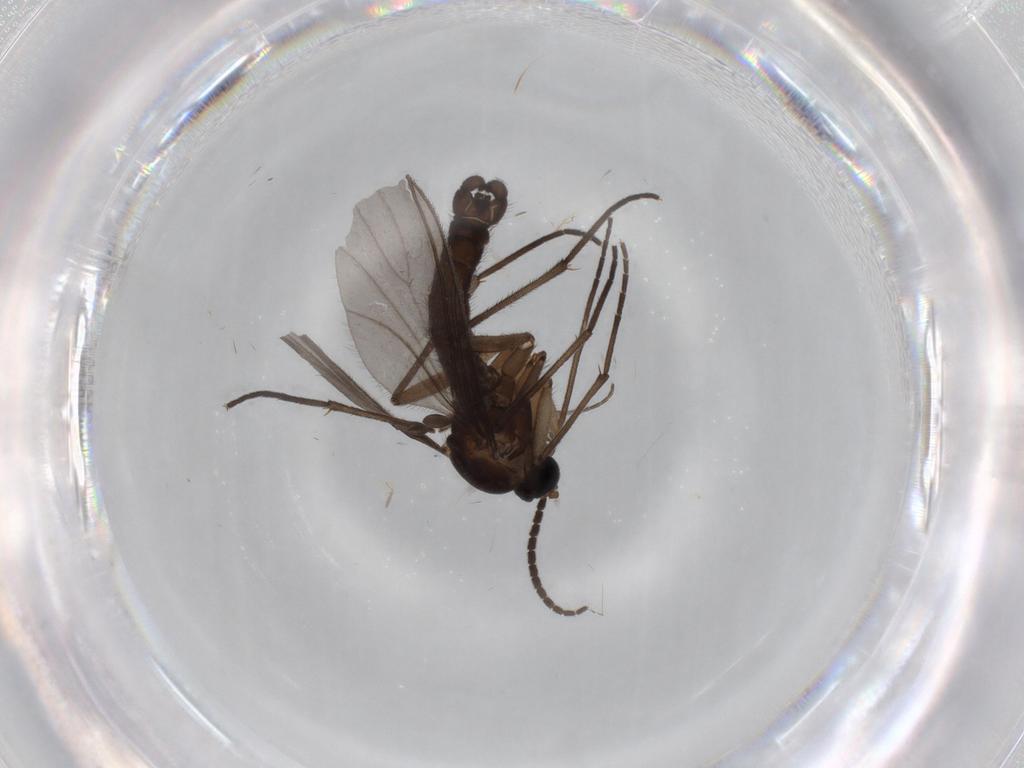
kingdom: Animalia
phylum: Arthropoda
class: Insecta
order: Diptera
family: Sciaridae
